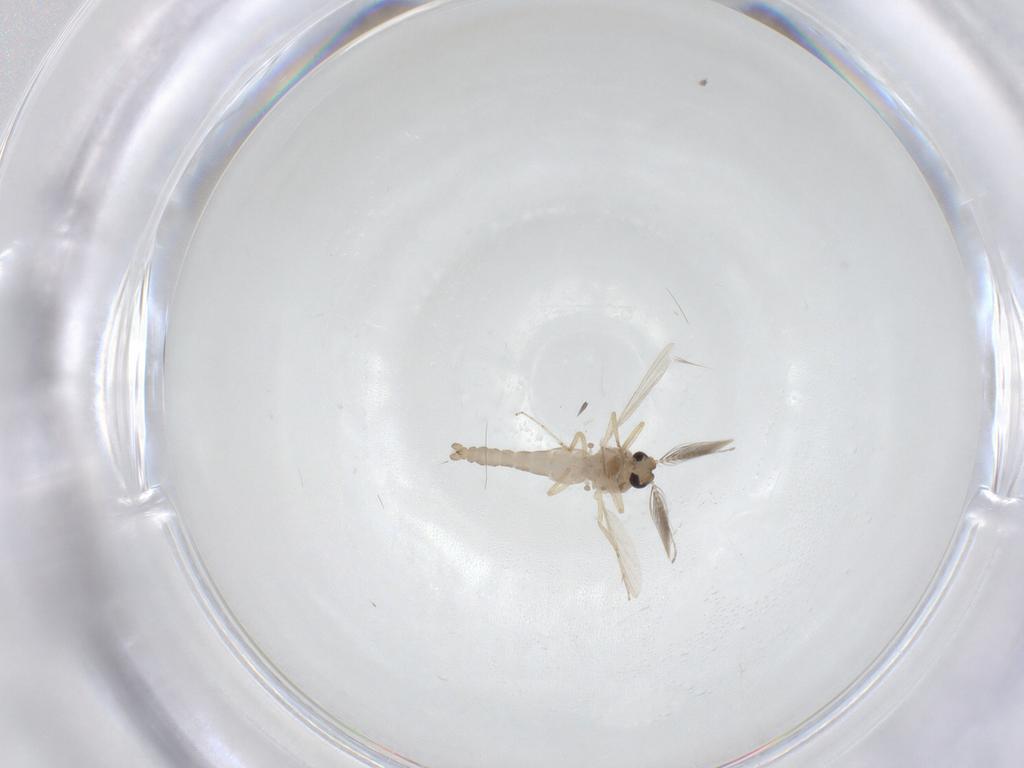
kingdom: Animalia
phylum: Arthropoda
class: Insecta
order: Diptera
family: Ceratopogonidae
